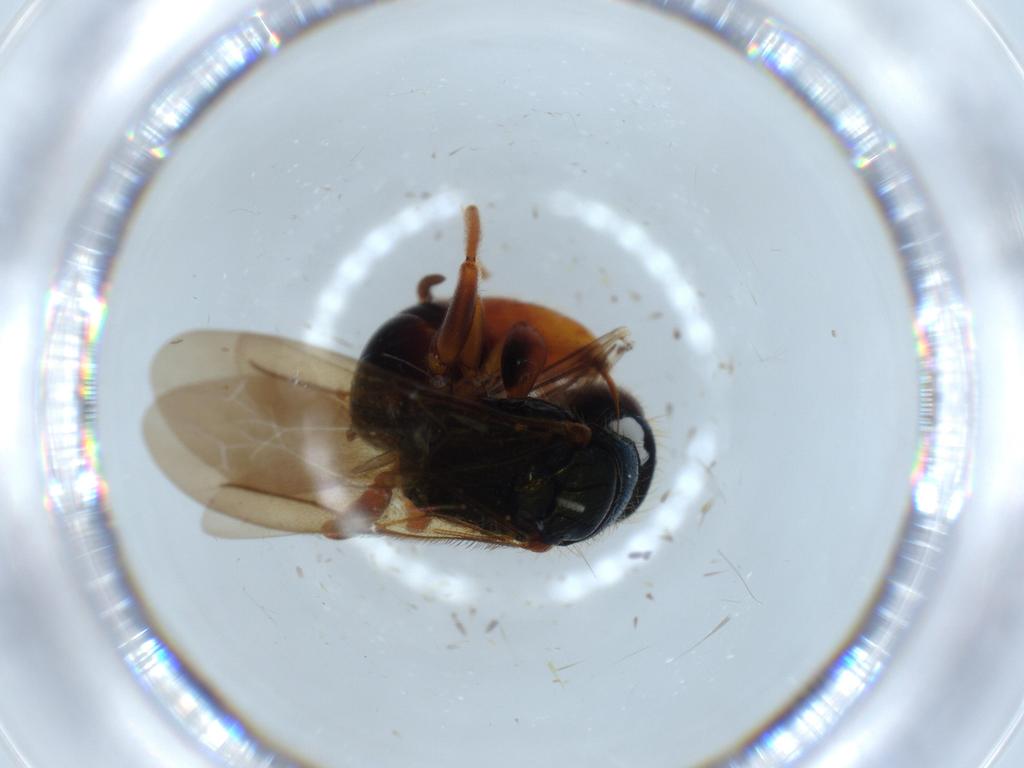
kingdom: Animalia
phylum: Arthropoda
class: Insecta
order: Hymenoptera
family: Bethylidae
